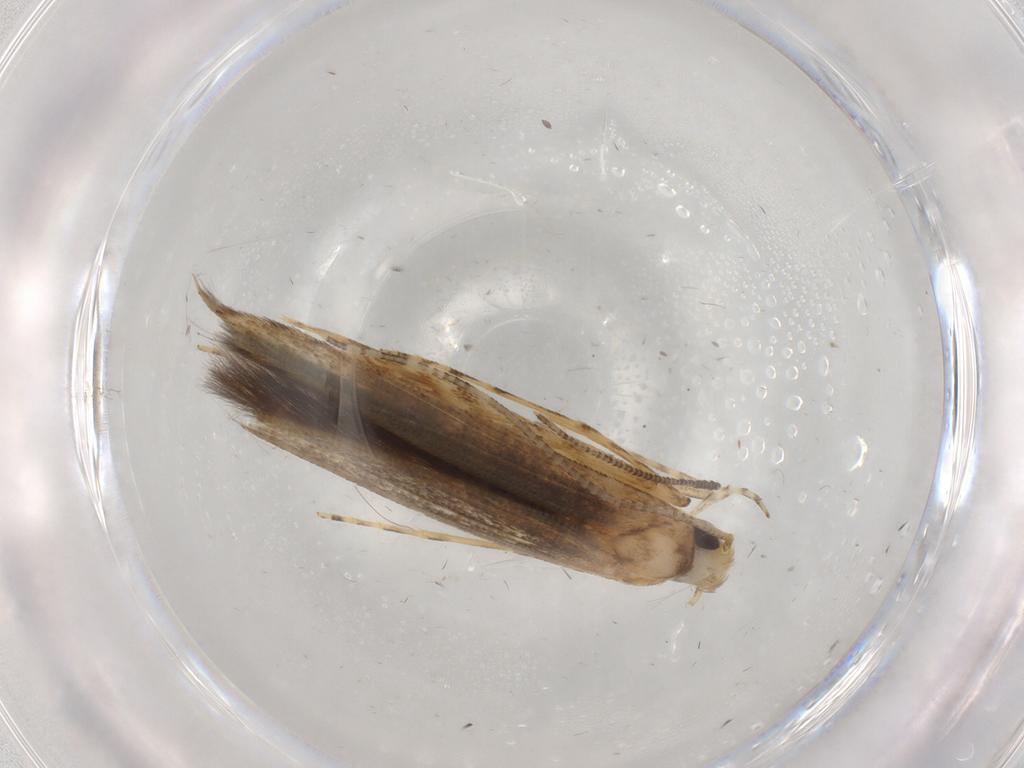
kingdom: Animalia
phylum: Arthropoda
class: Insecta
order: Lepidoptera
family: Batrachedridae
